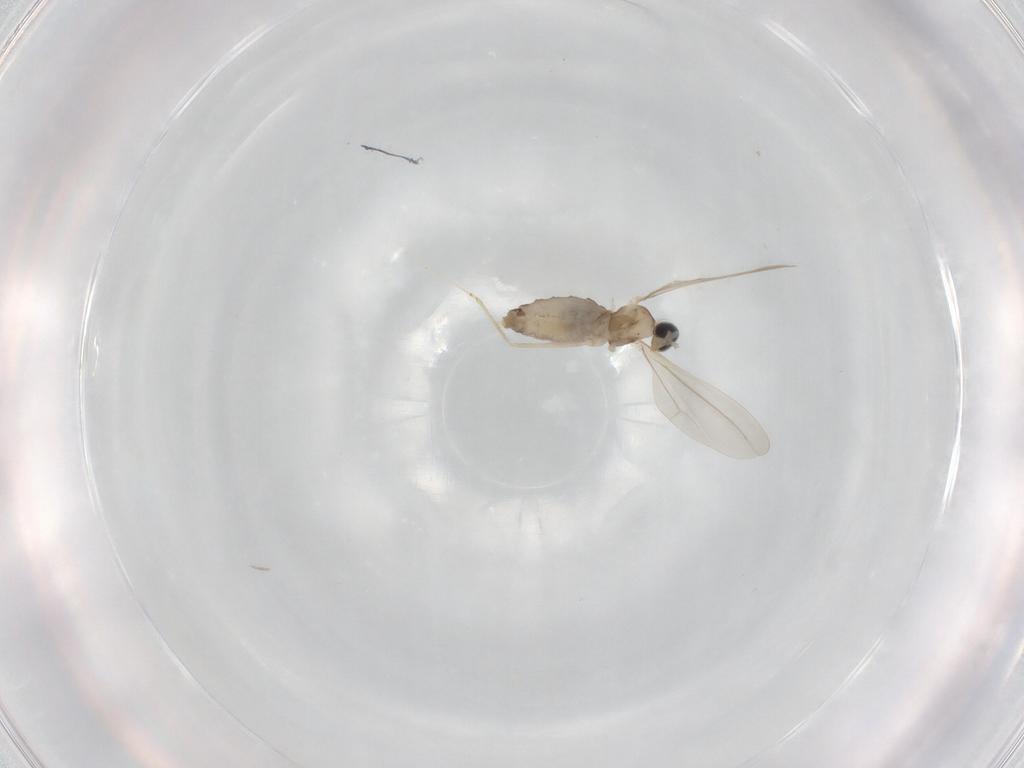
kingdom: Animalia
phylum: Arthropoda
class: Insecta
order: Diptera
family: Cecidomyiidae
